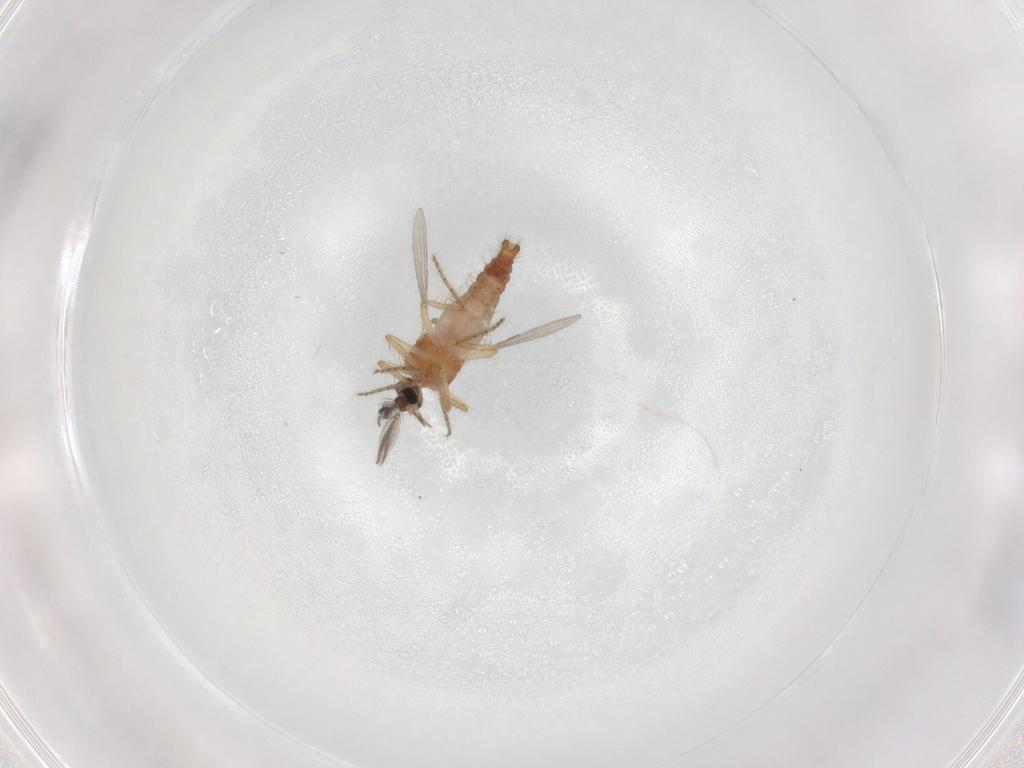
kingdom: Animalia
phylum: Arthropoda
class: Insecta
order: Diptera
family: Ceratopogonidae
